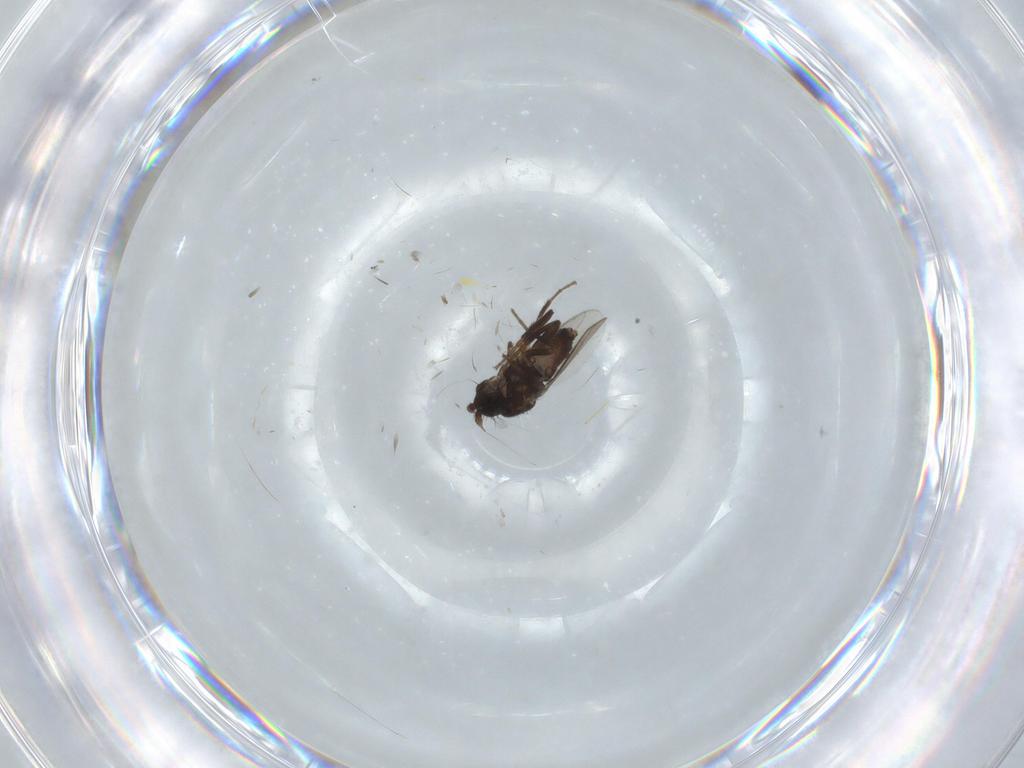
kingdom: Animalia
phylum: Arthropoda
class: Insecta
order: Diptera
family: Sphaeroceridae
